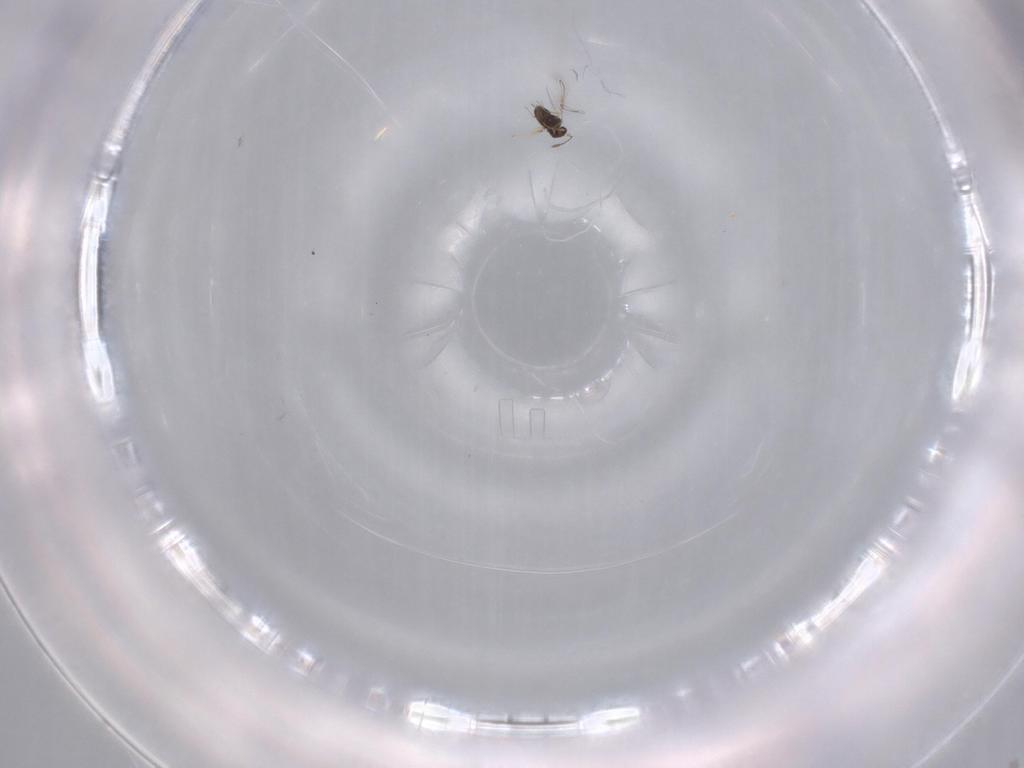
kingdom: Animalia
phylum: Arthropoda
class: Insecta
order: Hymenoptera
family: Mymaridae
